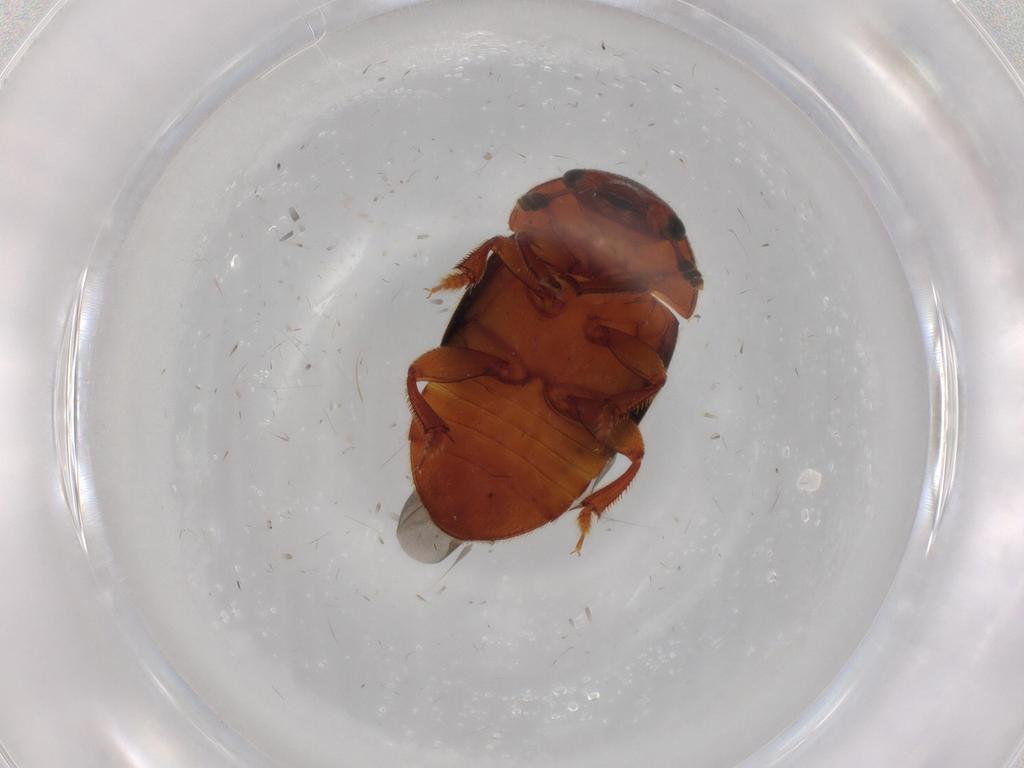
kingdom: Animalia
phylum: Arthropoda
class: Insecta
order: Coleoptera
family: Nitidulidae
